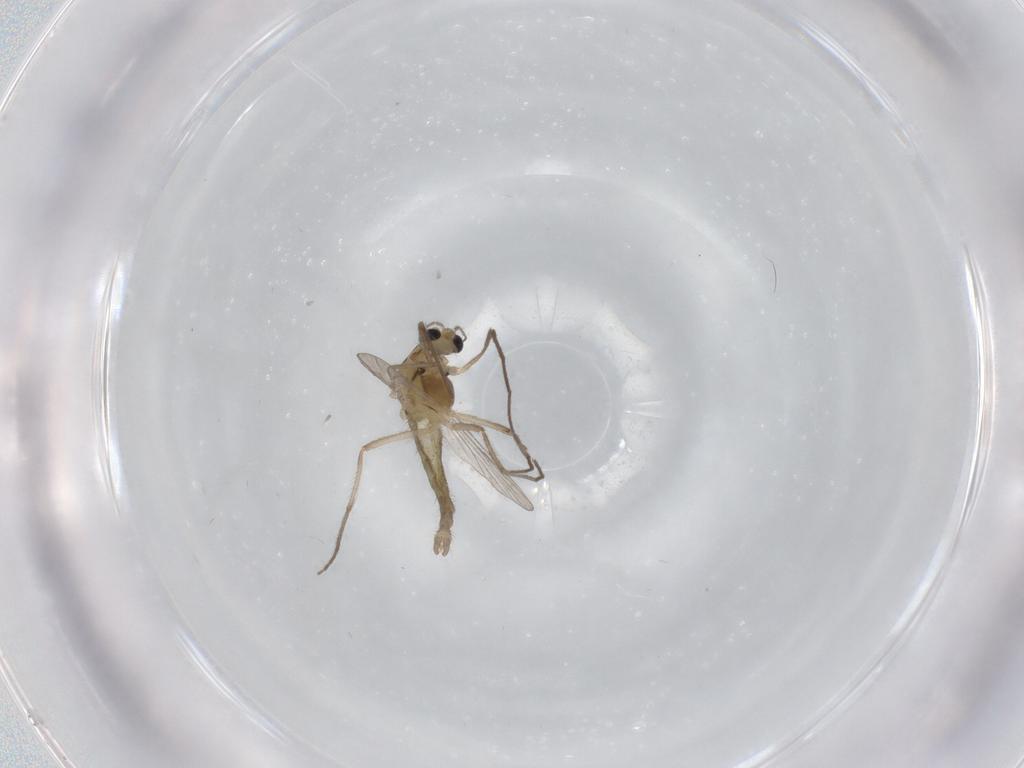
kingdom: Animalia
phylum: Arthropoda
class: Insecta
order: Diptera
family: Chironomidae
